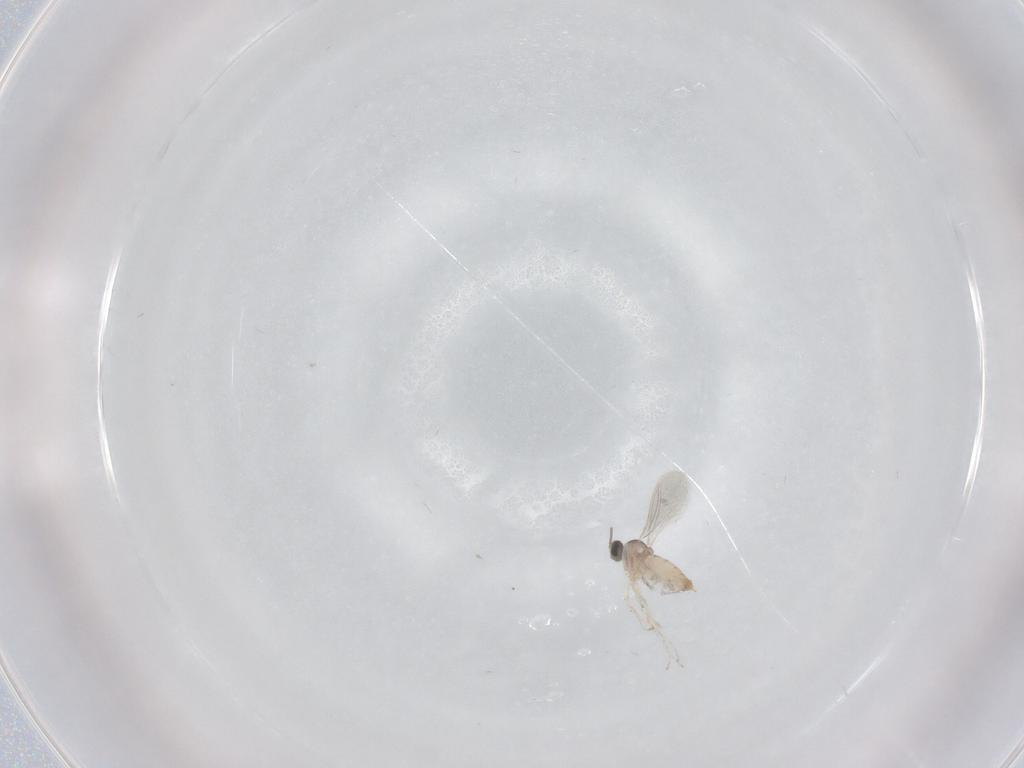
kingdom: Animalia
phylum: Arthropoda
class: Insecta
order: Diptera
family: Cecidomyiidae
